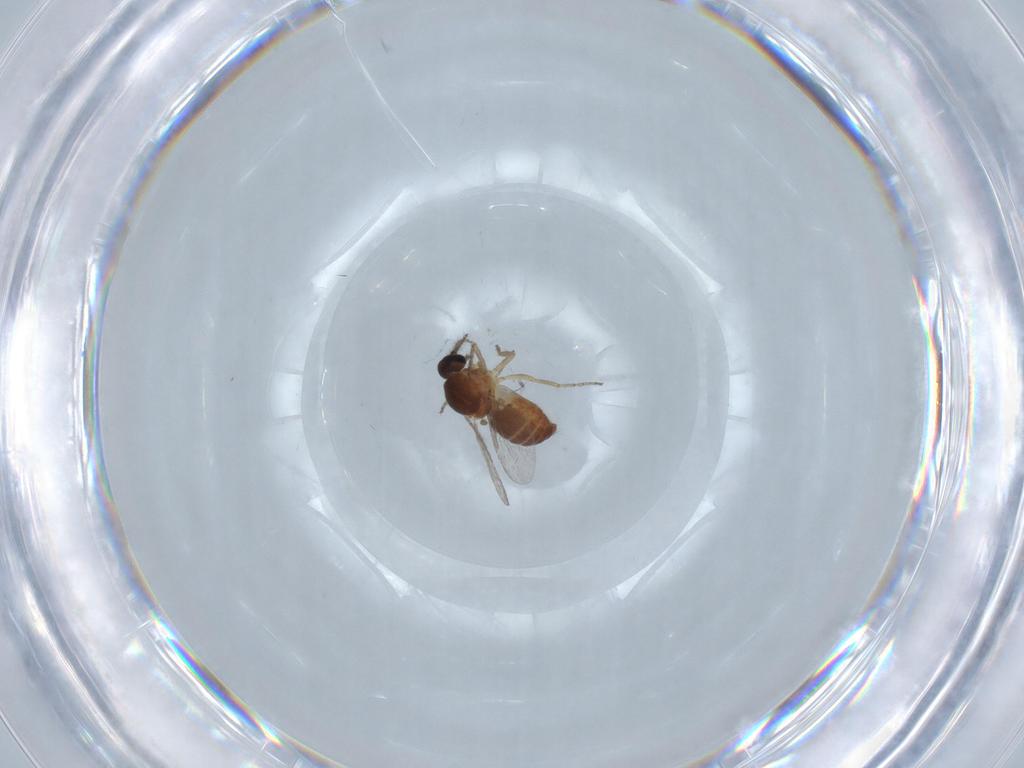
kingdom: Animalia
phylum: Arthropoda
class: Insecta
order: Diptera
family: Ceratopogonidae
